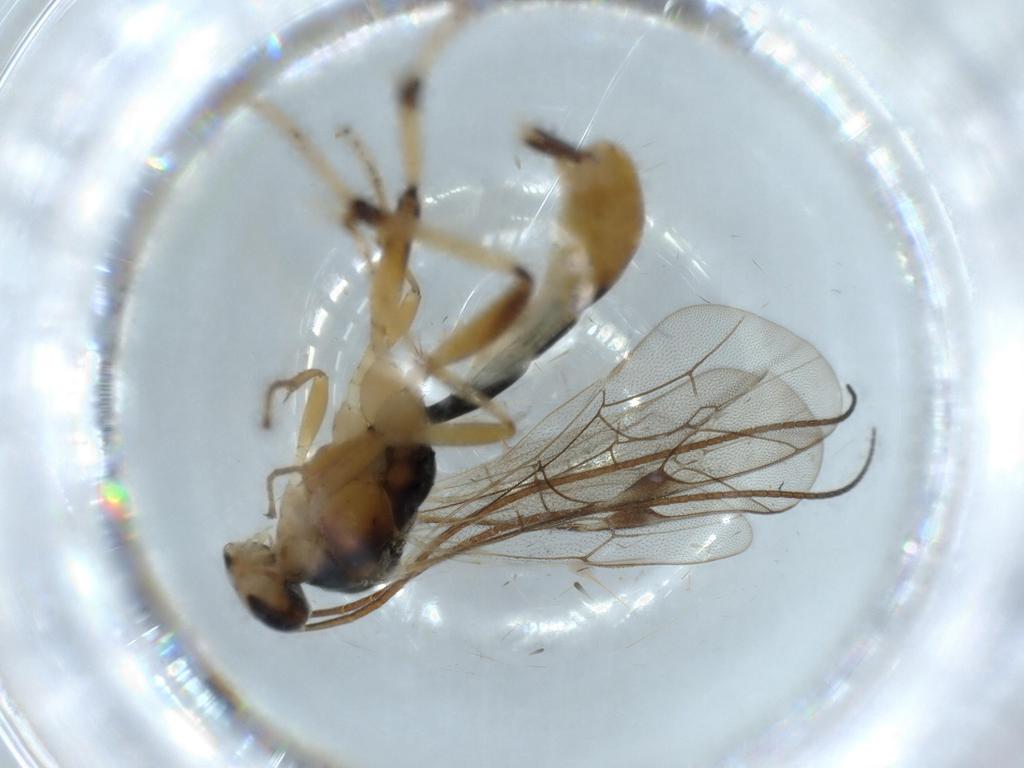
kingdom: Animalia
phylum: Arthropoda
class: Insecta
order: Hymenoptera
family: Ichneumonidae
